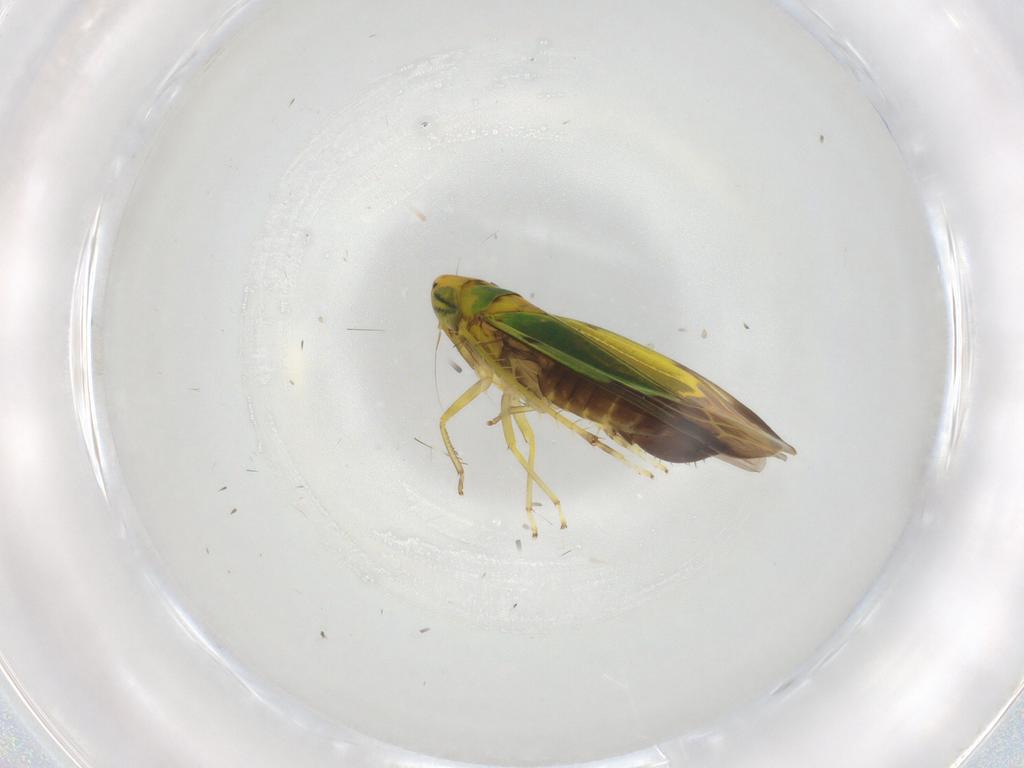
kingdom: Animalia
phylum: Arthropoda
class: Insecta
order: Hemiptera
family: Cicadellidae
